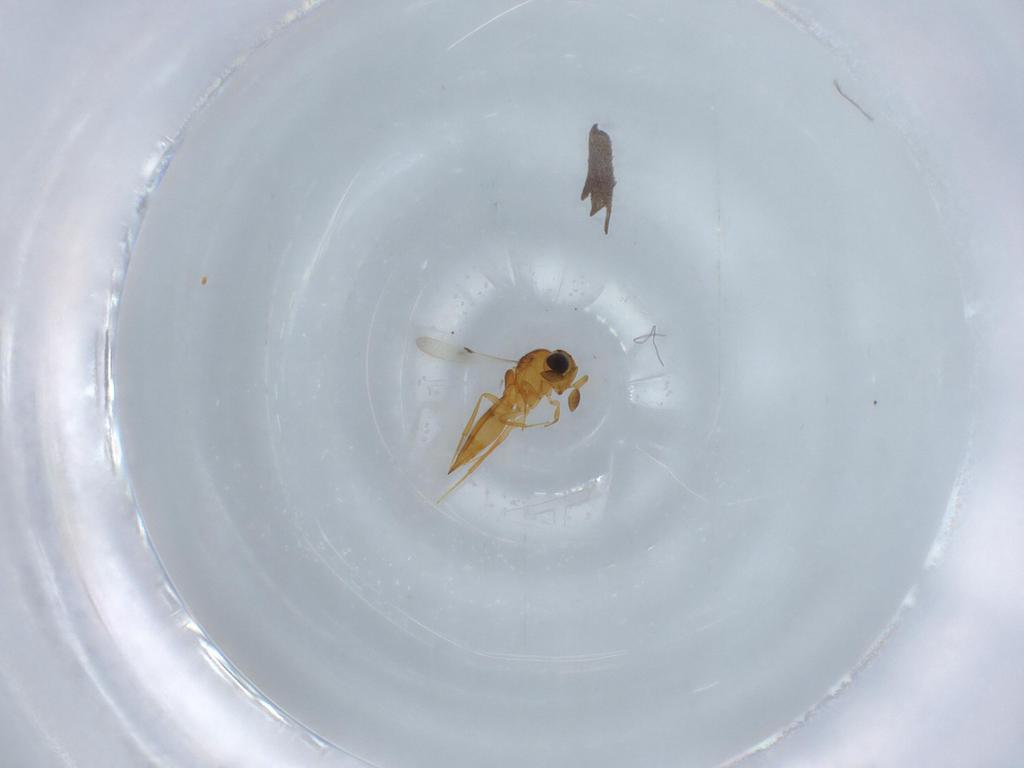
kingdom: Animalia
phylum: Arthropoda
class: Insecta
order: Hymenoptera
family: Scelionidae
